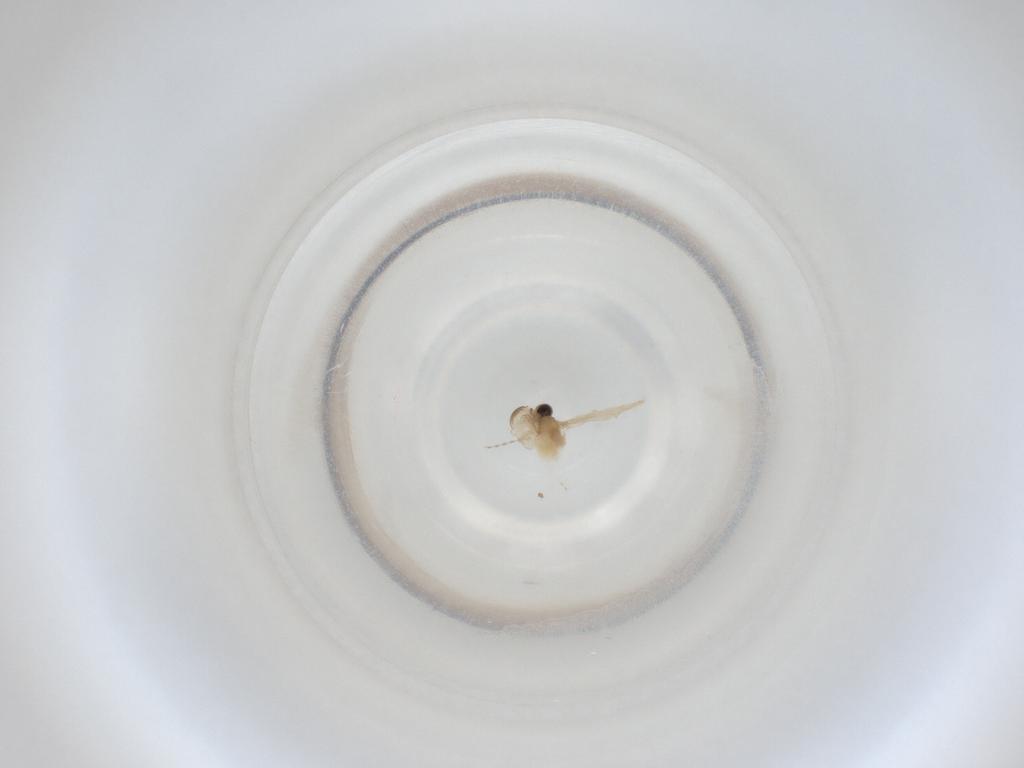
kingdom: Animalia
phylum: Arthropoda
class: Insecta
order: Diptera
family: Cecidomyiidae
